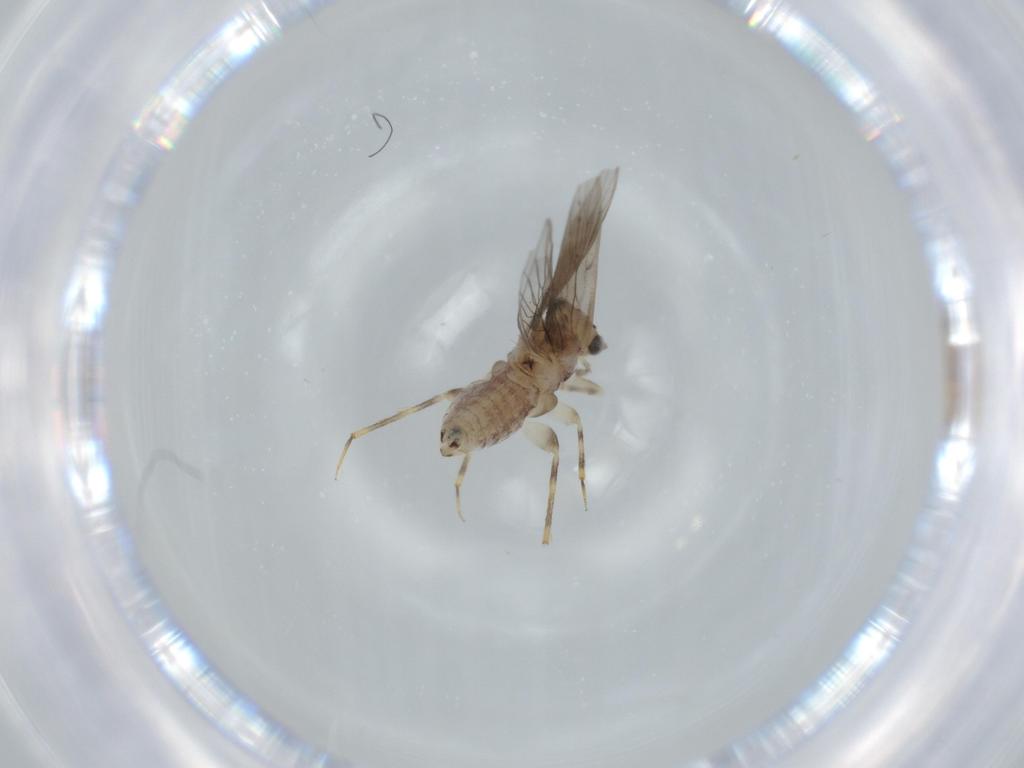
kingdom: Animalia
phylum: Arthropoda
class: Insecta
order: Psocodea
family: Lepidopsocidae
